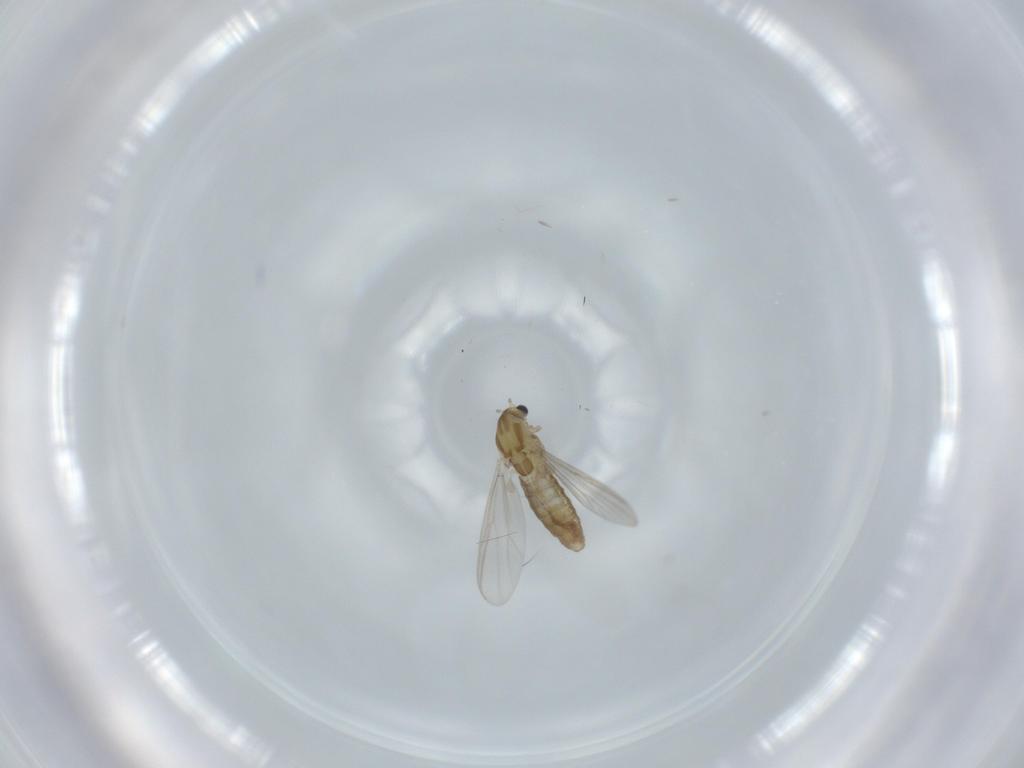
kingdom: Animalia
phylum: Arthropoda
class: Insecta
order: Diptera
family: Chironomidae
